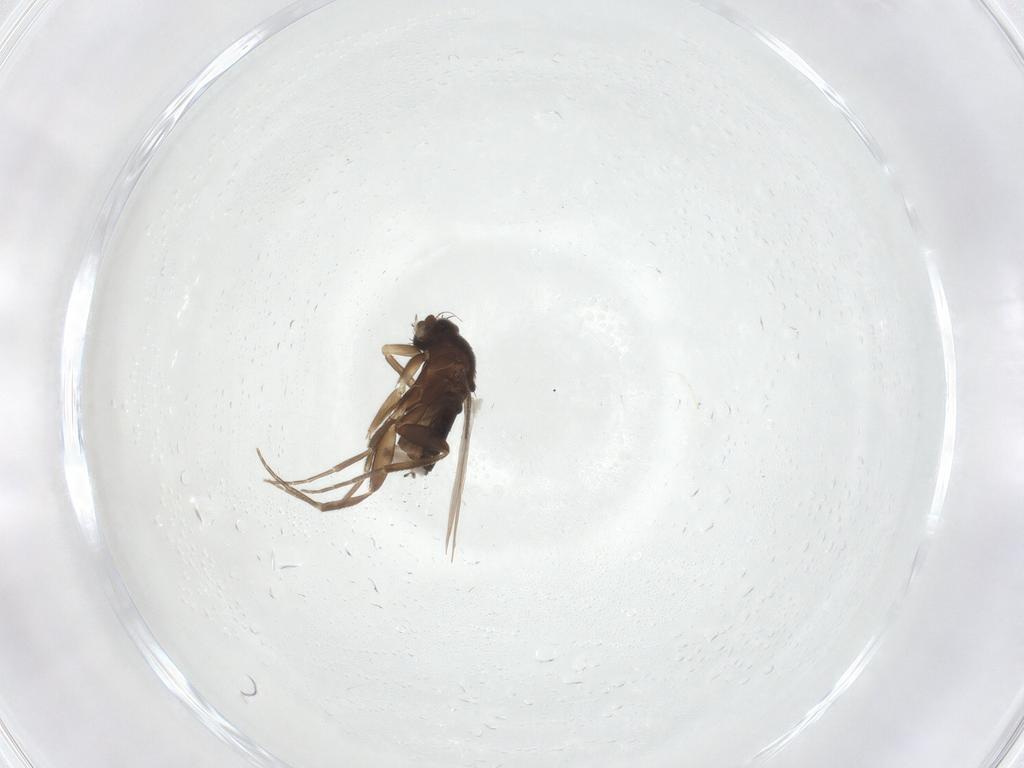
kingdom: Animalia
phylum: Arthropoda
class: Insecta
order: Diptera
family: Phoridae
